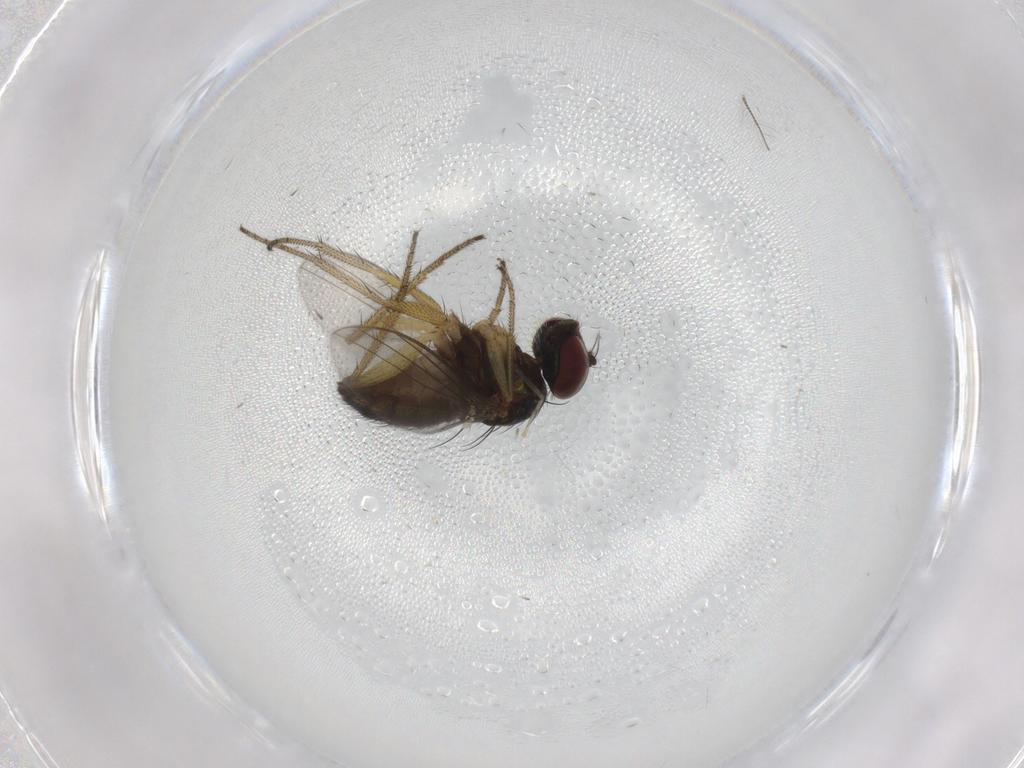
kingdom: Animalia
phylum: Arthropoda
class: Insecta
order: Diptera
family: Chironomidae
